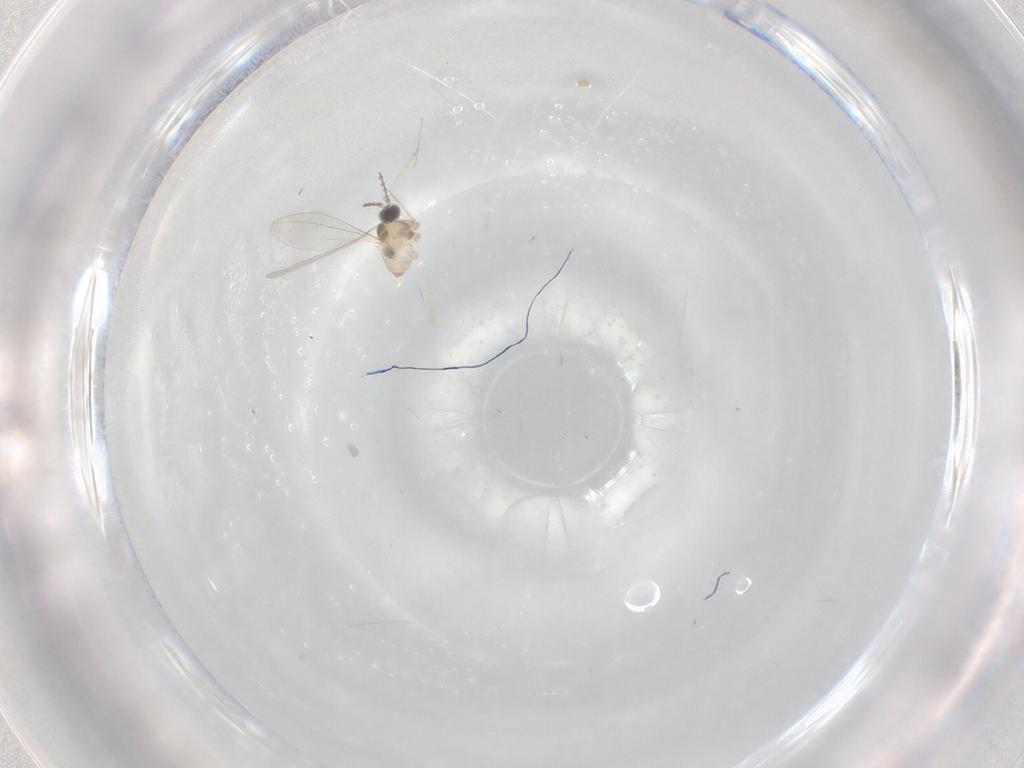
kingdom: Animalia
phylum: Arthropoda
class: Insecta
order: Diptera
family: Cecidomyiidae
